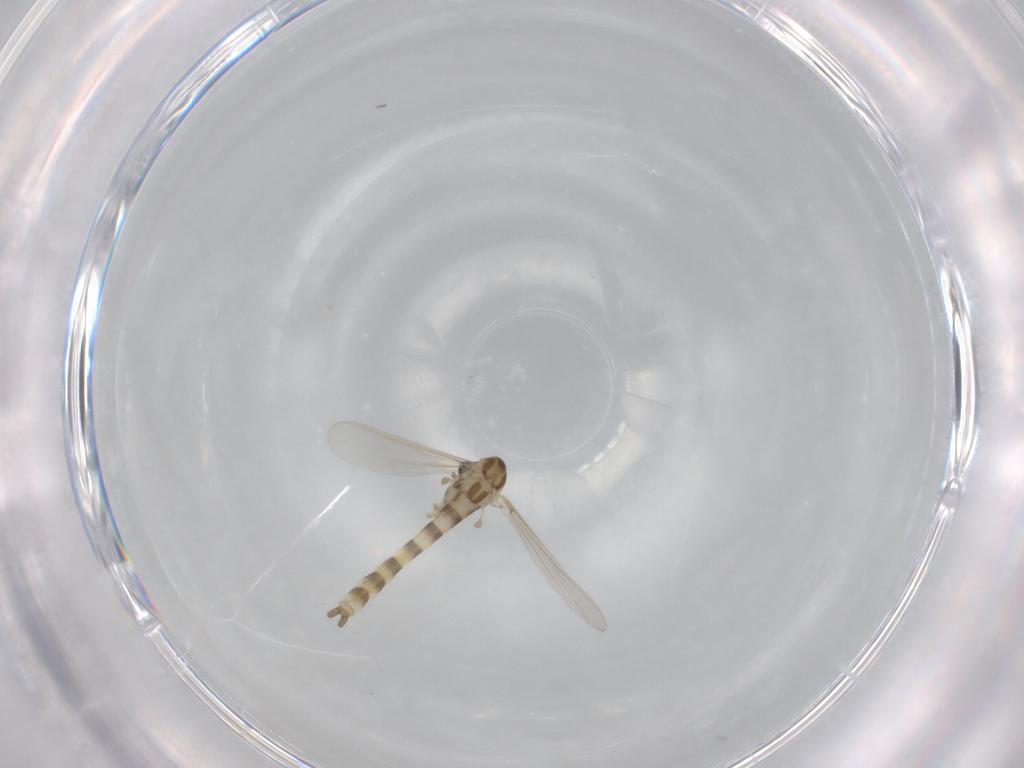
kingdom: Animalia
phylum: Arthropoda
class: Insecta
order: Diptera
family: Chironomidae
